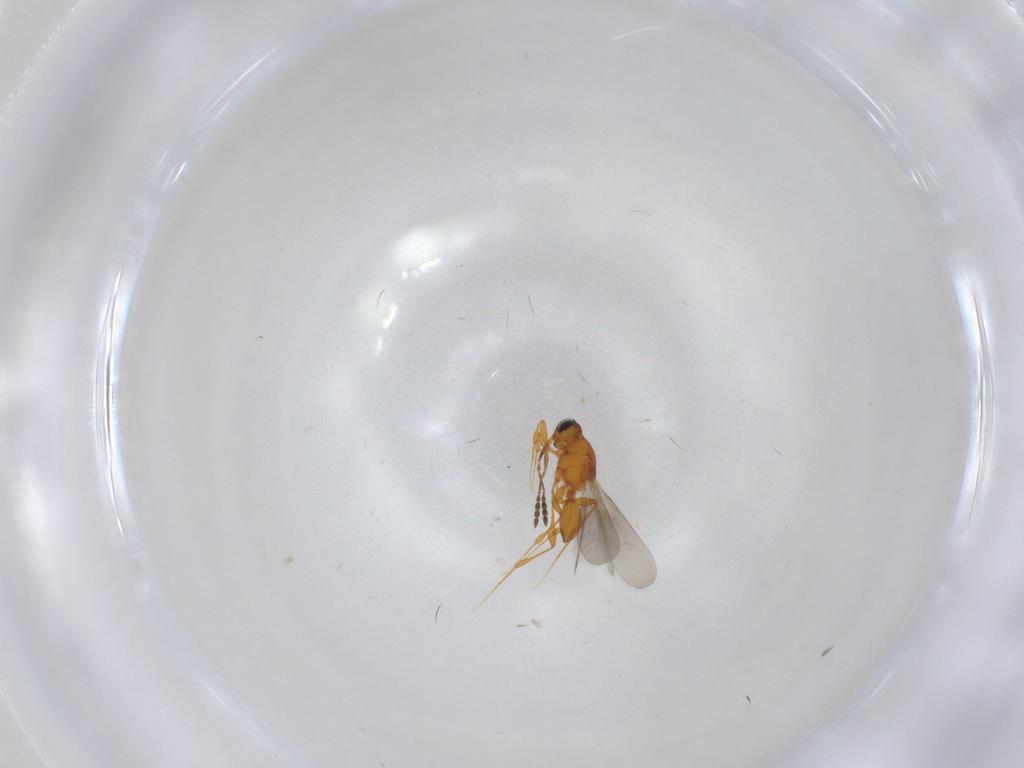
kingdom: Animalia
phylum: Arthropoda
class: Insecta
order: Hymenoptera
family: Platygastridae
